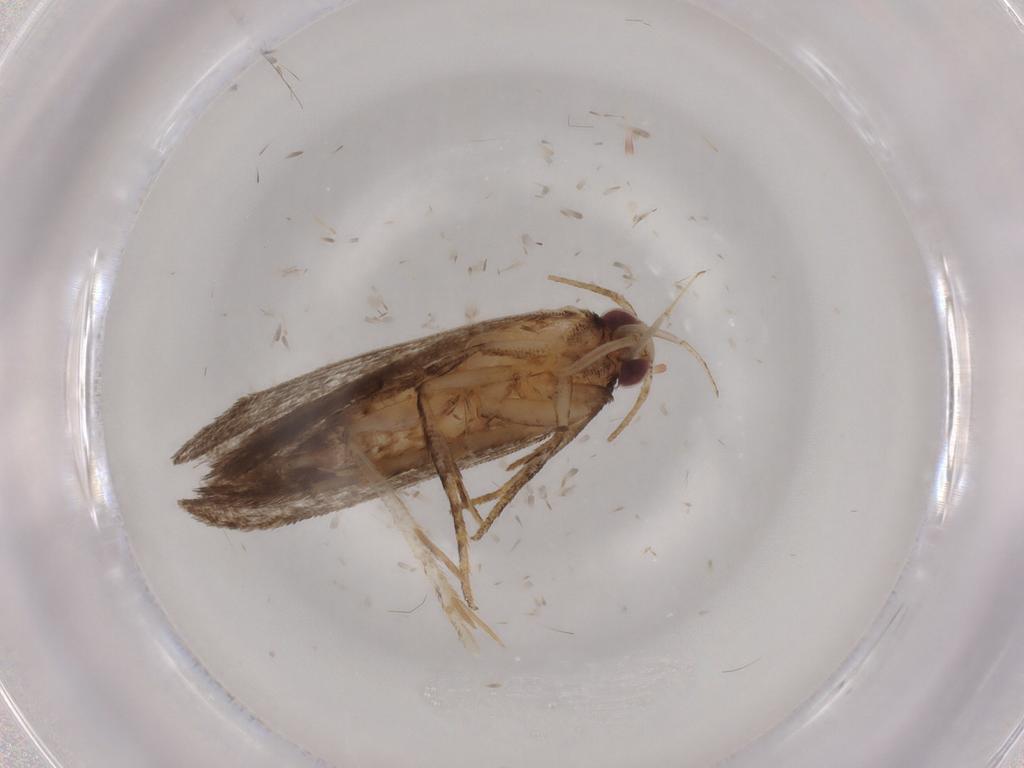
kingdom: Animalia
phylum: Arthropoda
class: Insecta
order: Lepidoptera
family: Gelechiidae
